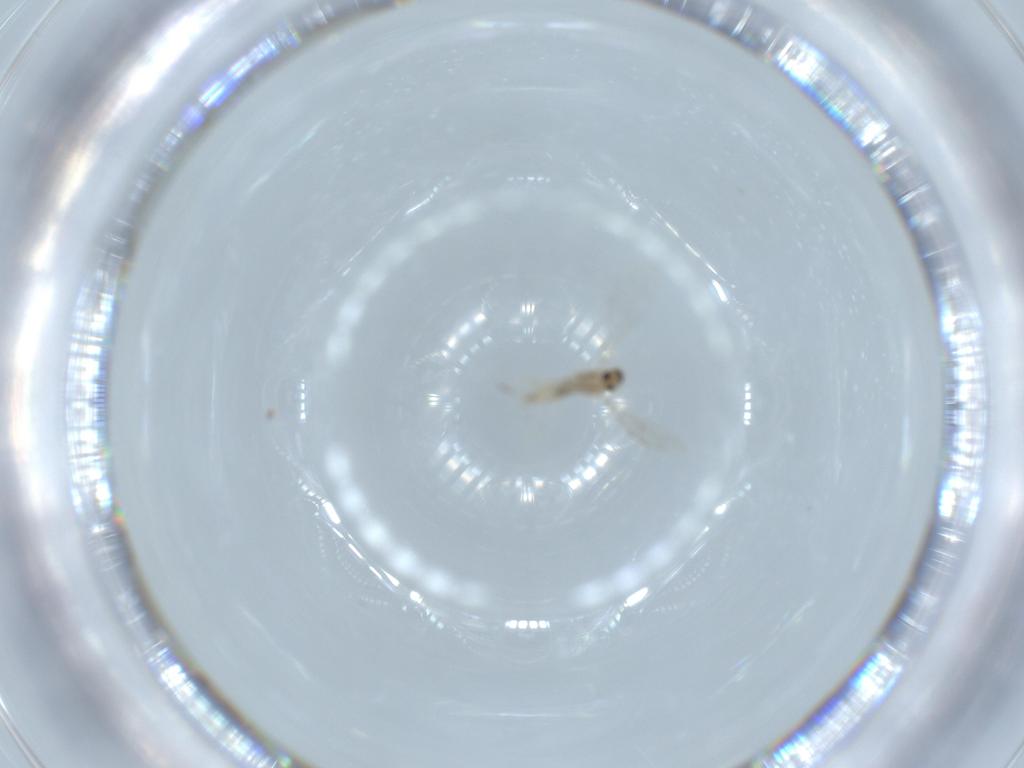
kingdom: Animalia
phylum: Arthropoda
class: Insecta
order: Diptera
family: Cecidomyiidae
